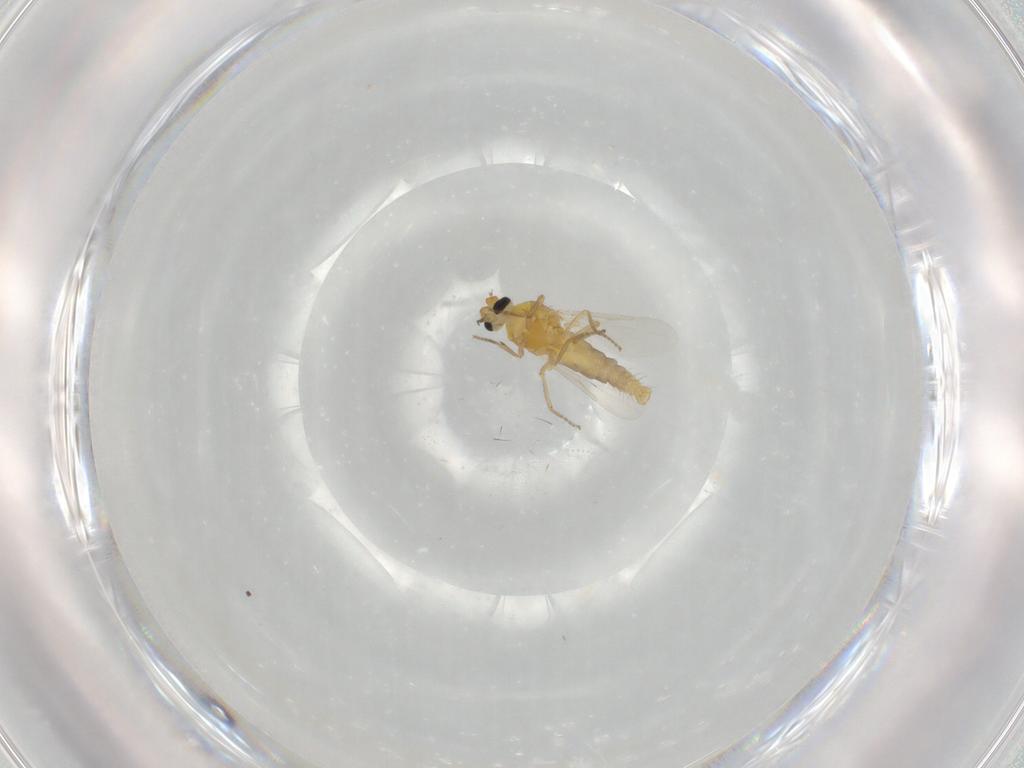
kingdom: Animalia
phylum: Arthropoda
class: Insecta
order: Diptera
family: Ceratopogonidae
